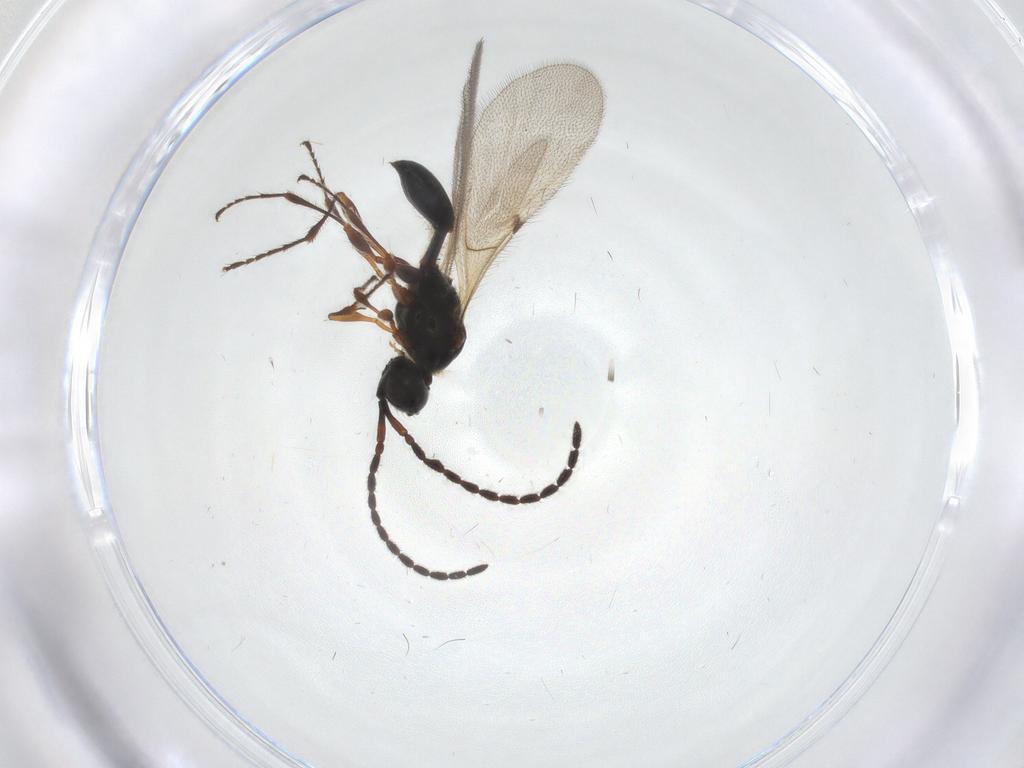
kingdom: Animalia
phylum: Arthropoda
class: Insecta
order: Hymenoptera
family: Diapriidae
